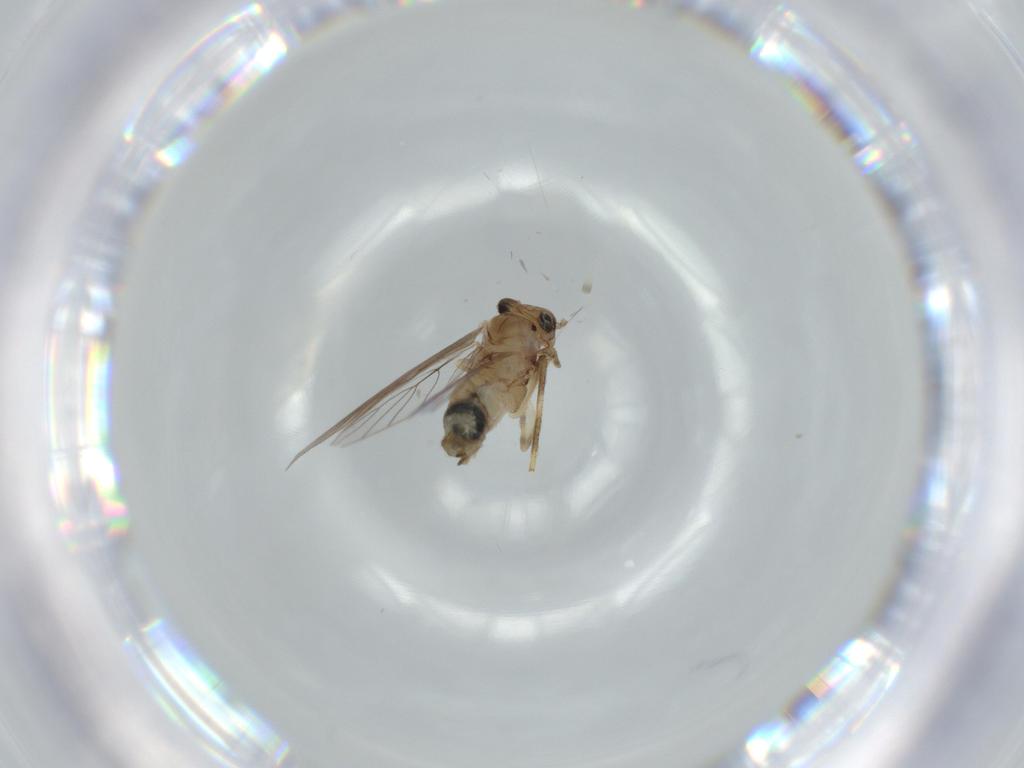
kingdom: Animalia
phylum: Arthropoda
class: Insecta
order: Psocodea
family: Lepidopsocidae
